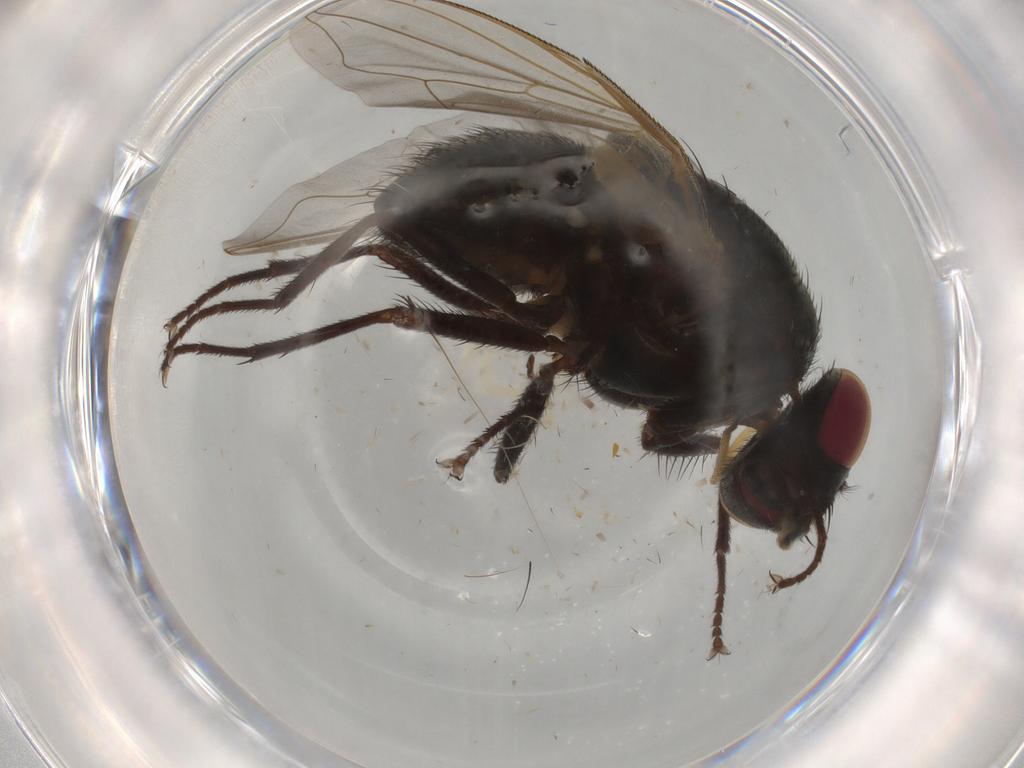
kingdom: Animalia
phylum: Arthropoda
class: Insecta
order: Diptera
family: Muscidae
